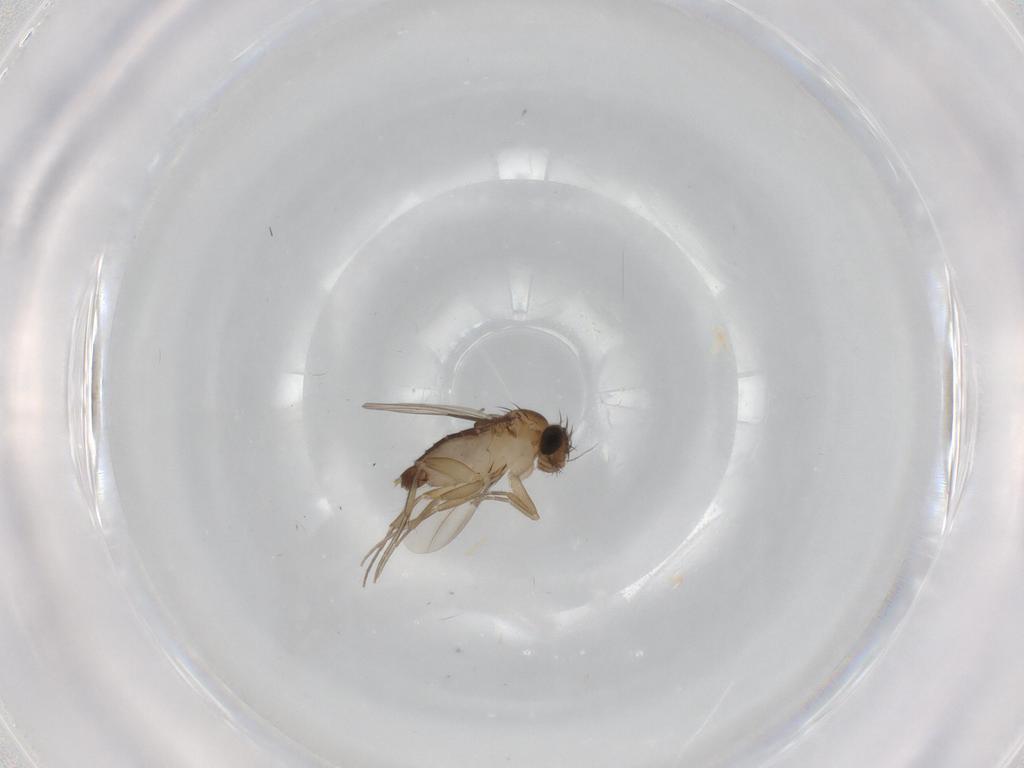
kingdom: Animalia
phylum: Arthropoda
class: Insecta
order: Diptera
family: Phoridae
